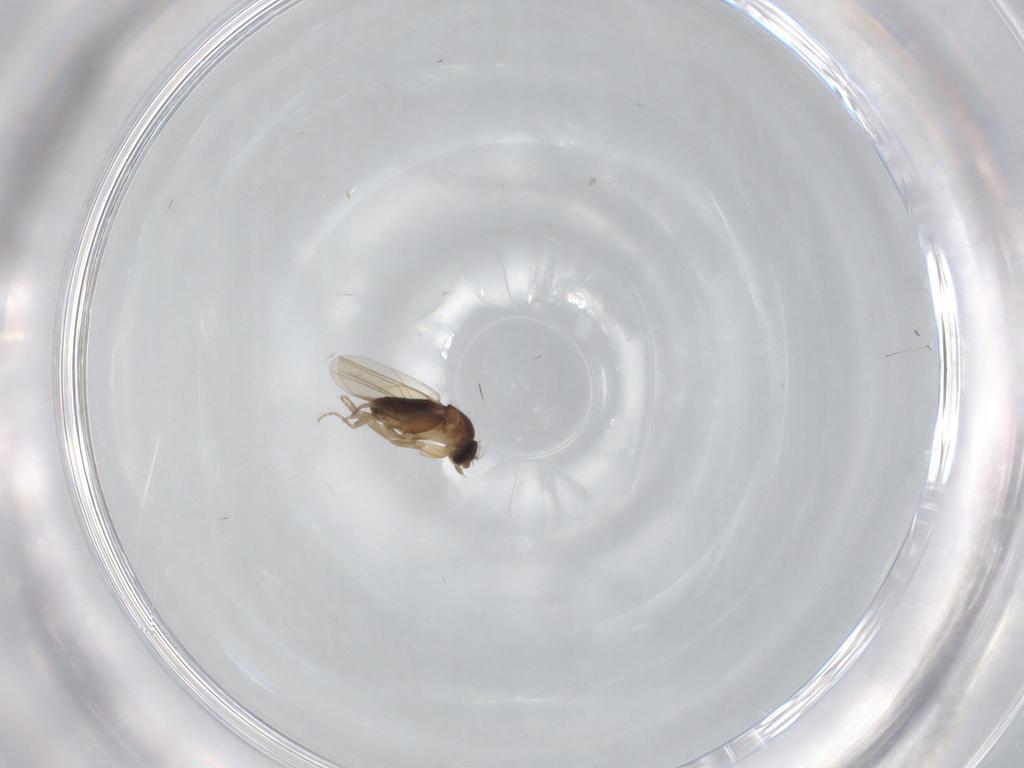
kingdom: Animalia
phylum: Arthropoda
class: Insecta
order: Diptera
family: Phoridae
